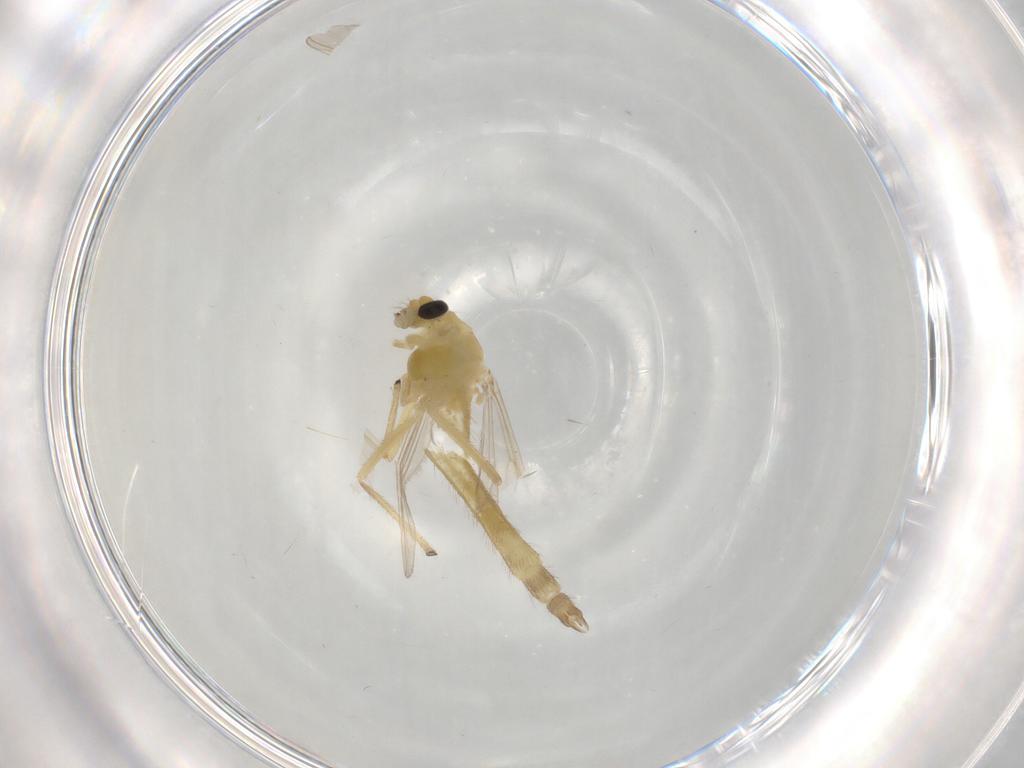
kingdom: Animalia
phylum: Arthropoda
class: Insecta
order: Diptera
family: Chironomidae
